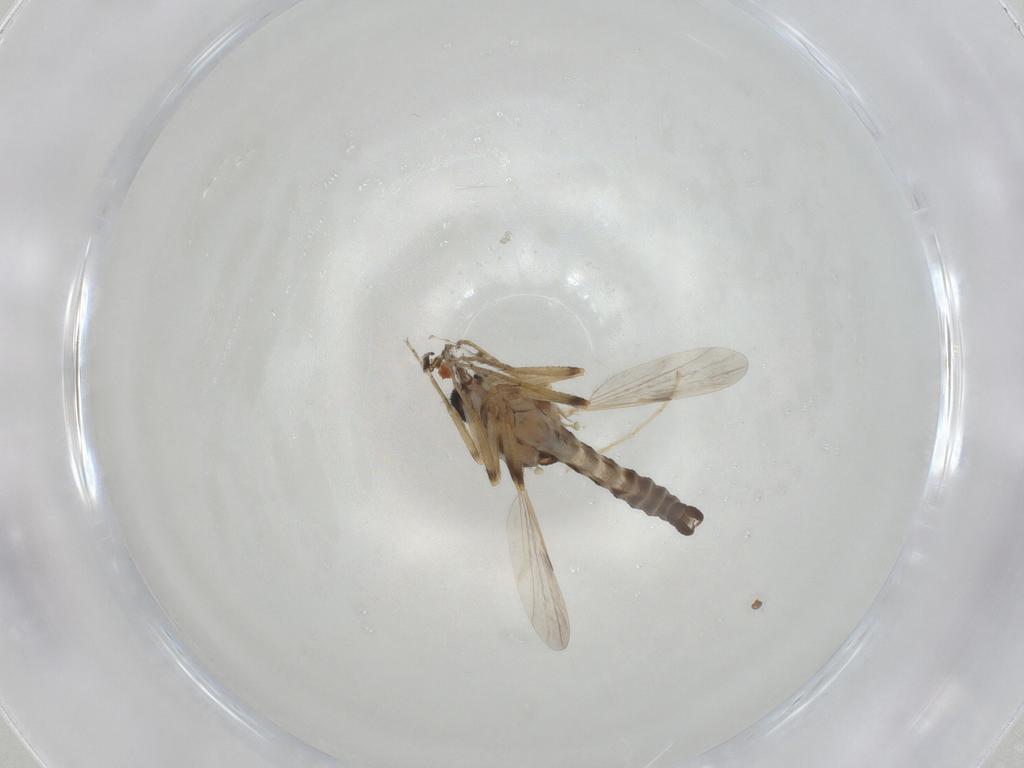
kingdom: Animalia
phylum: Arthropoda
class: Insecta
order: Diptera
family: Ceratopogonidae
